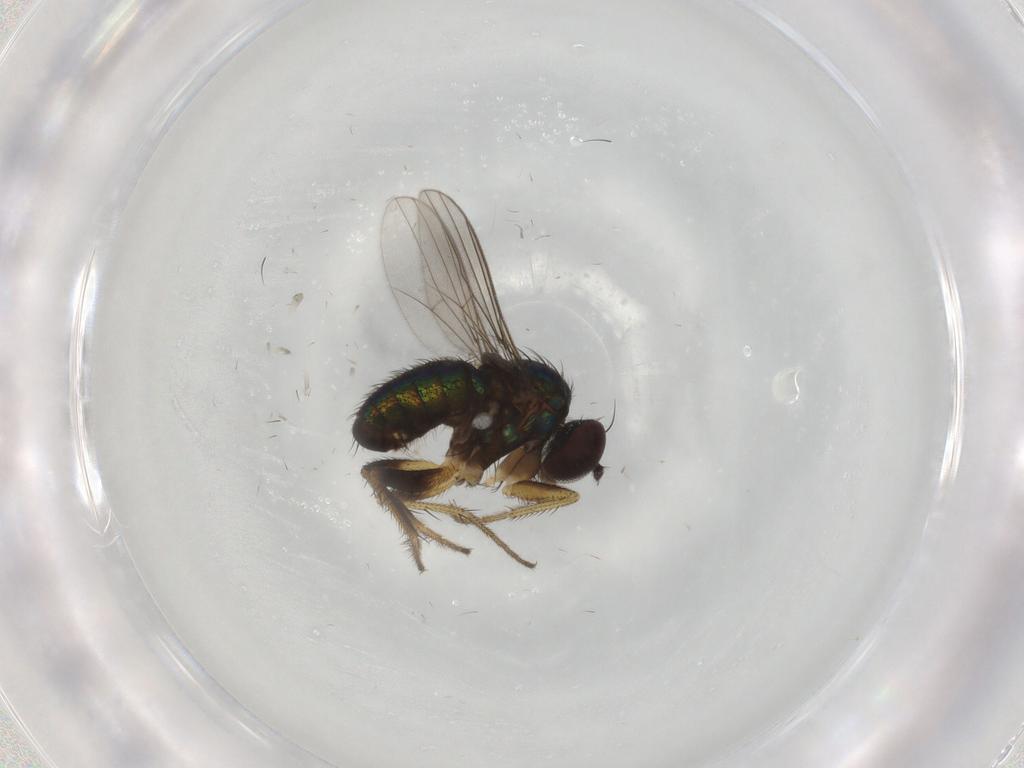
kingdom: Animalia
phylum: Arthropoda
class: Insecta
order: Diptera
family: Dolichopodidae
